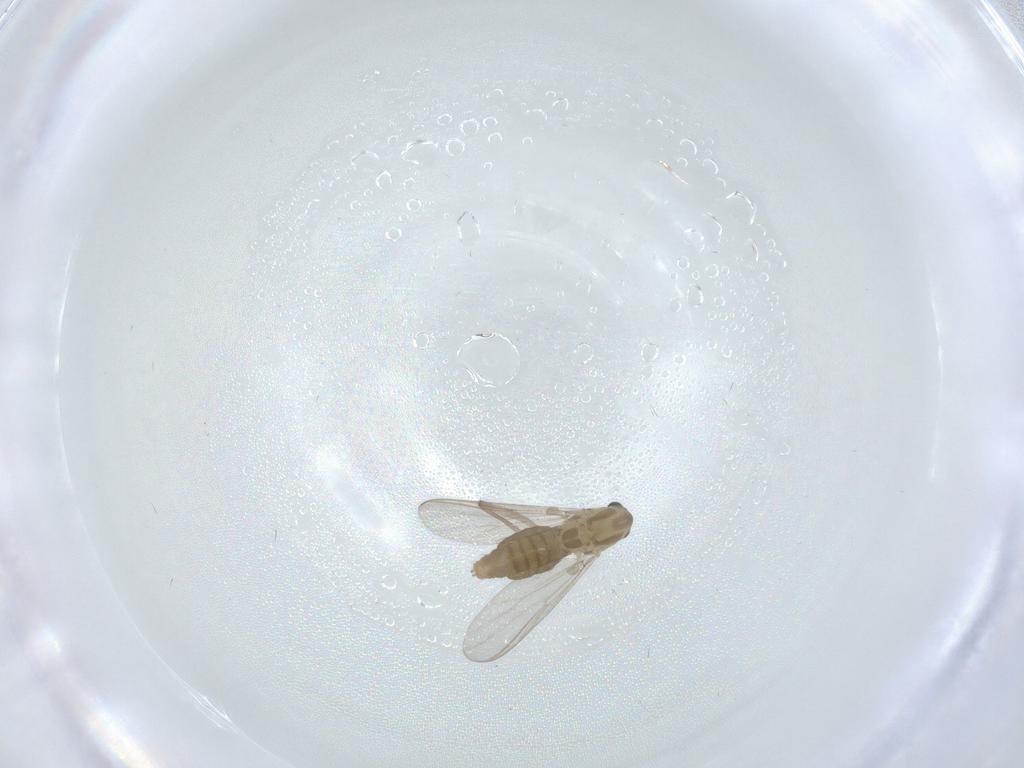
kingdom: Animalia
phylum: Arthropoda
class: Insecta
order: Diptera
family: Chironomidae
